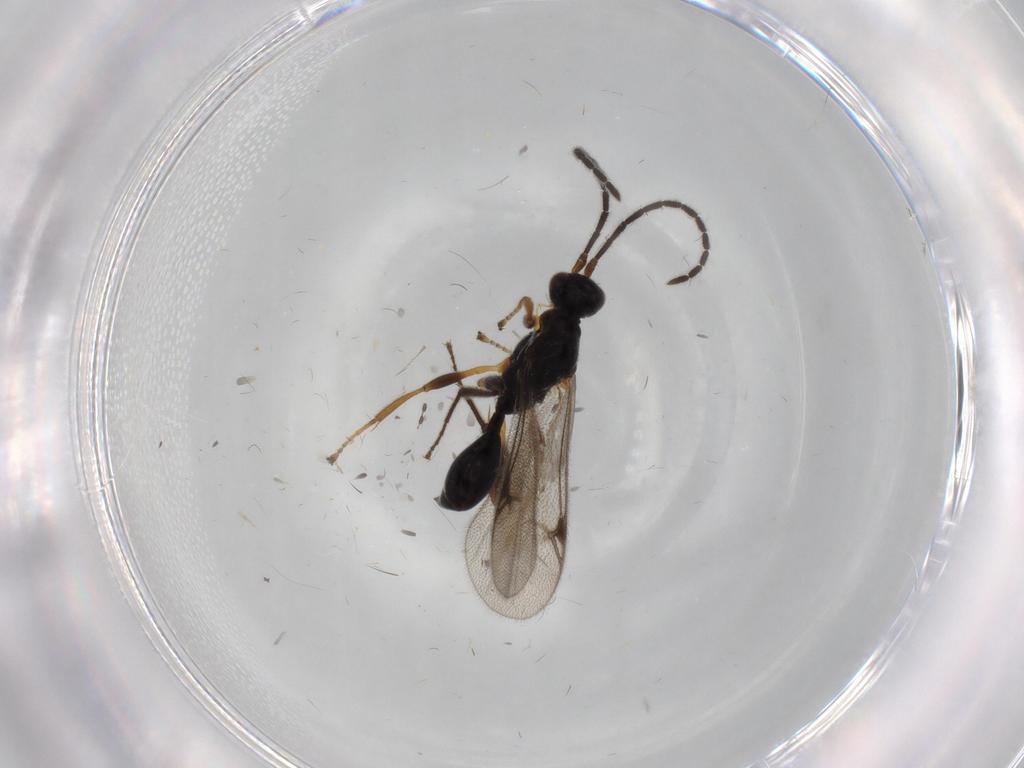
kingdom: Animalia
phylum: Arthropoda
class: Insecta
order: Hymenoptera
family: Proctotrupidae
